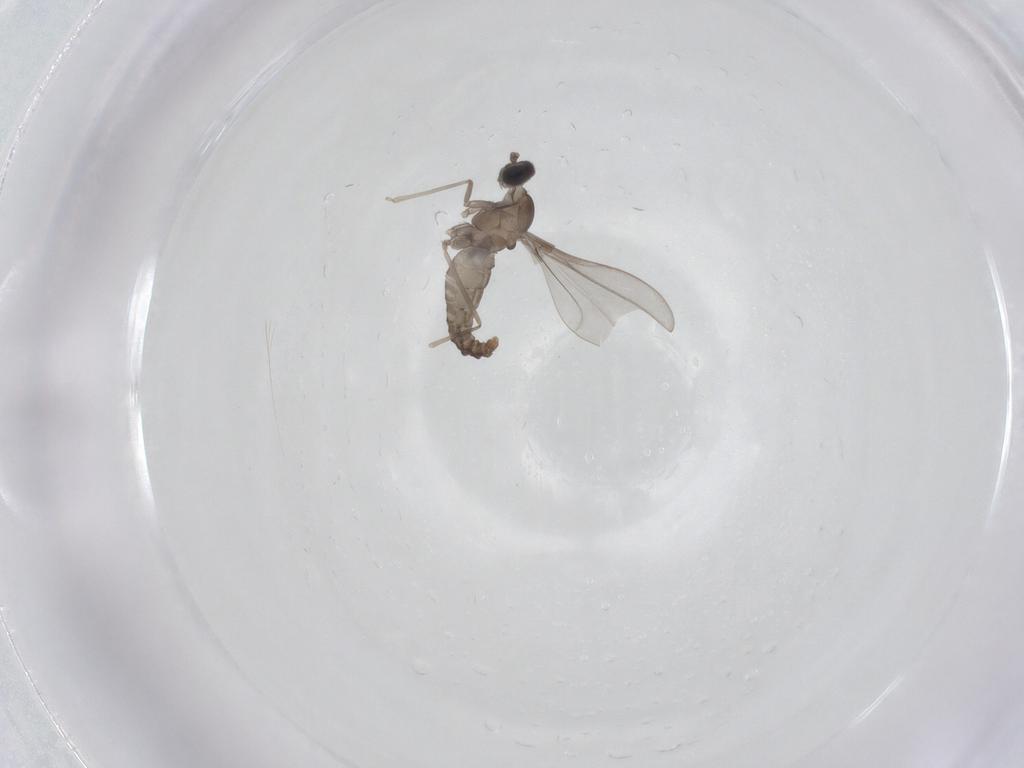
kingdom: Animalia
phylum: Arthropoda
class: Insecta
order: Diptera
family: Cecidomyiidae
